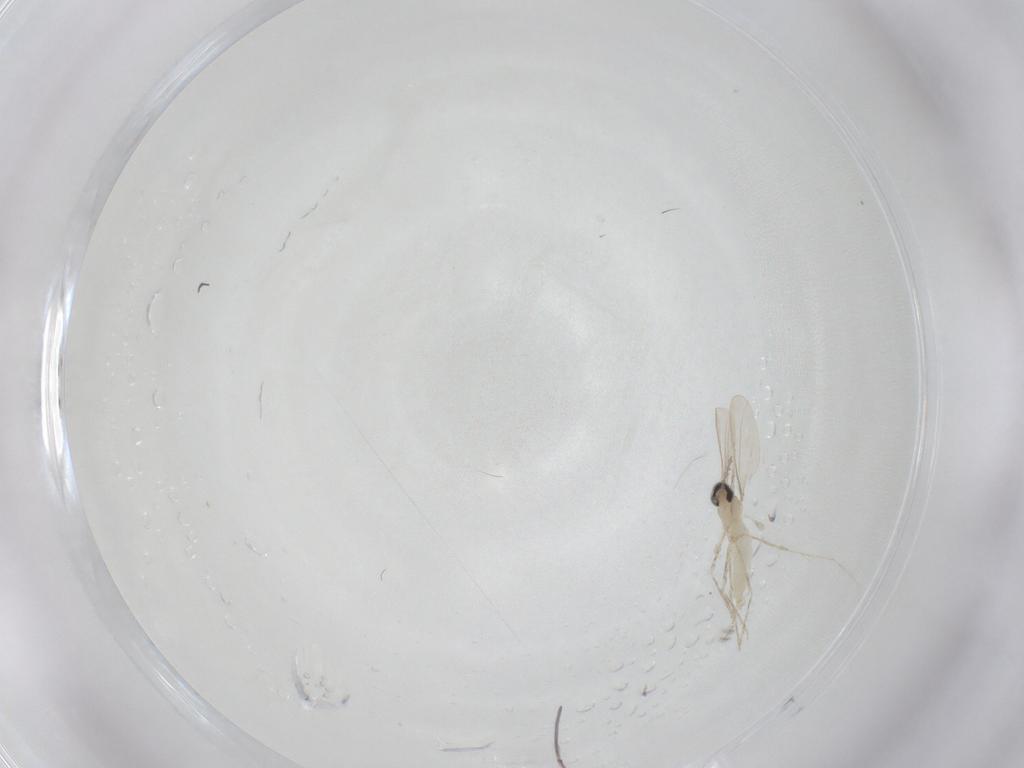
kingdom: Animalia
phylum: Arthropoda
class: Insecta
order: Diptera
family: Cecidomyiidae
